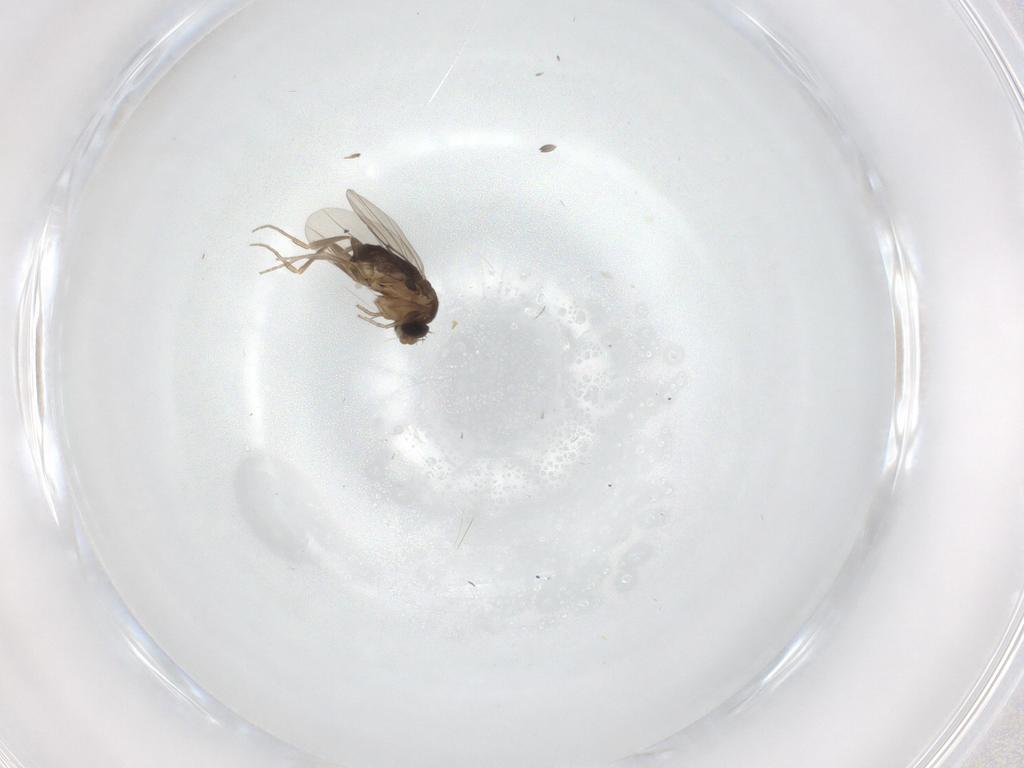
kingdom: Animalia
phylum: Arthropoda
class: Insecta
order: Diptera
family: Phoridae
